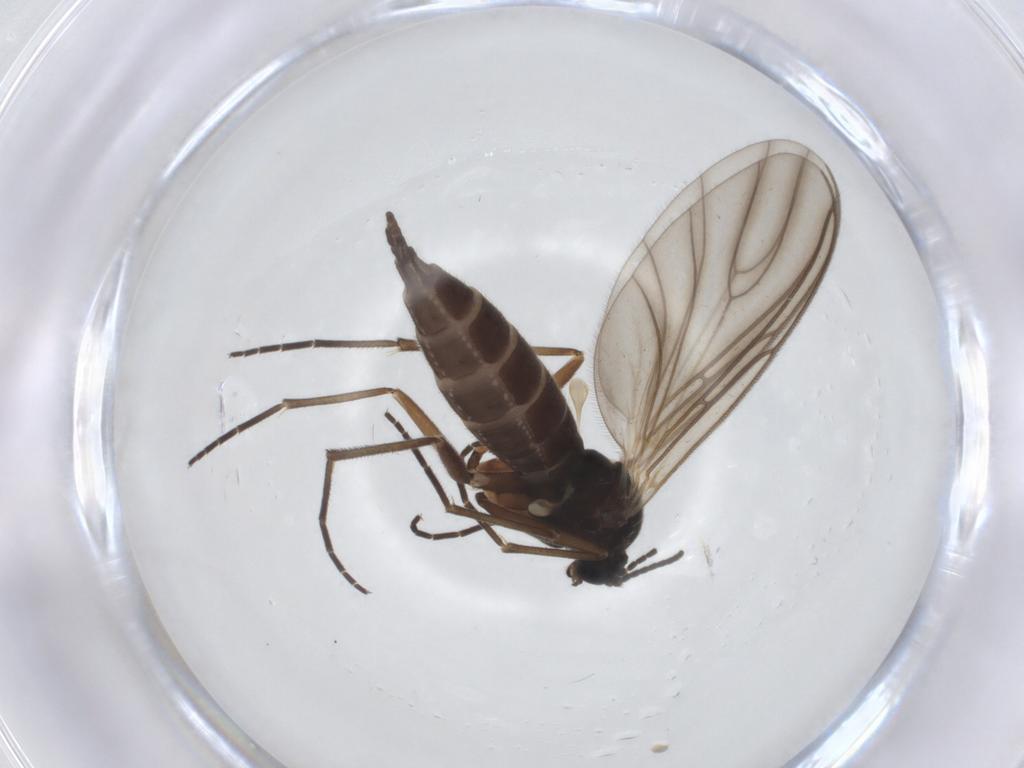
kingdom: Animalia
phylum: Arthropoda
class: Insecta
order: Diptera
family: Sciaridae
